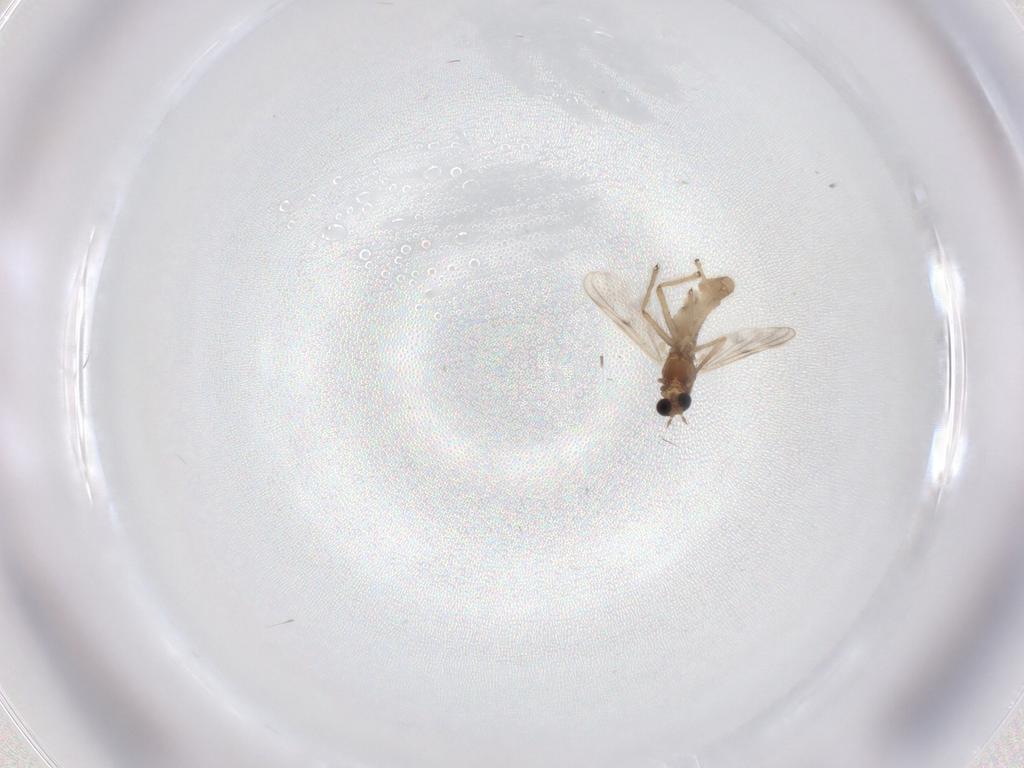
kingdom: Animalia
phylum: Arthropoda
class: Insecta
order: Diptera
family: Chironomidae
